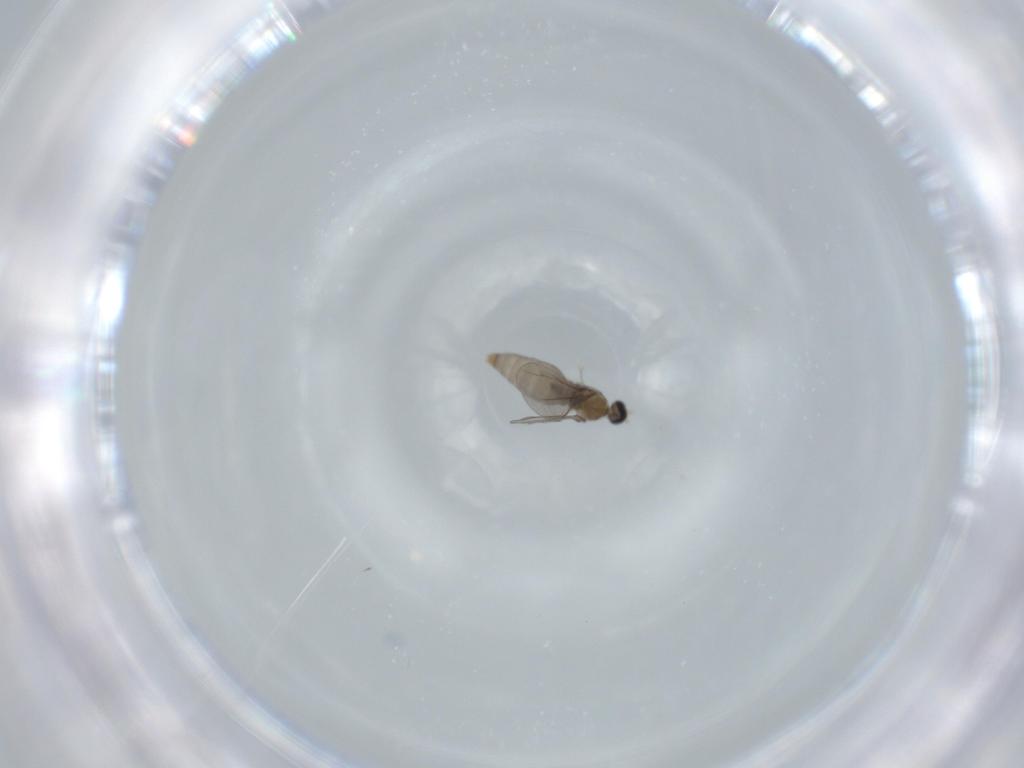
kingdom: Animalia
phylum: Arthropoda
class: Insecta
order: Diptera
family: Cecidomyiidae
